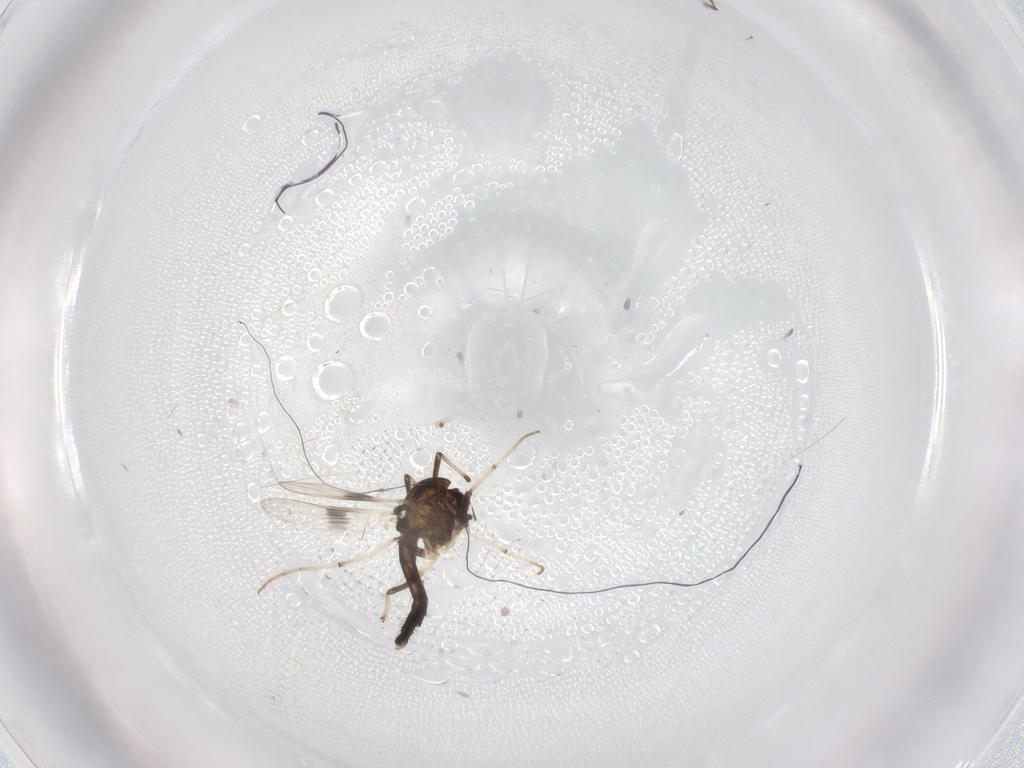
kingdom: Animalia
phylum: Arthropoda
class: Insecta
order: Diptera
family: Chironomidae
